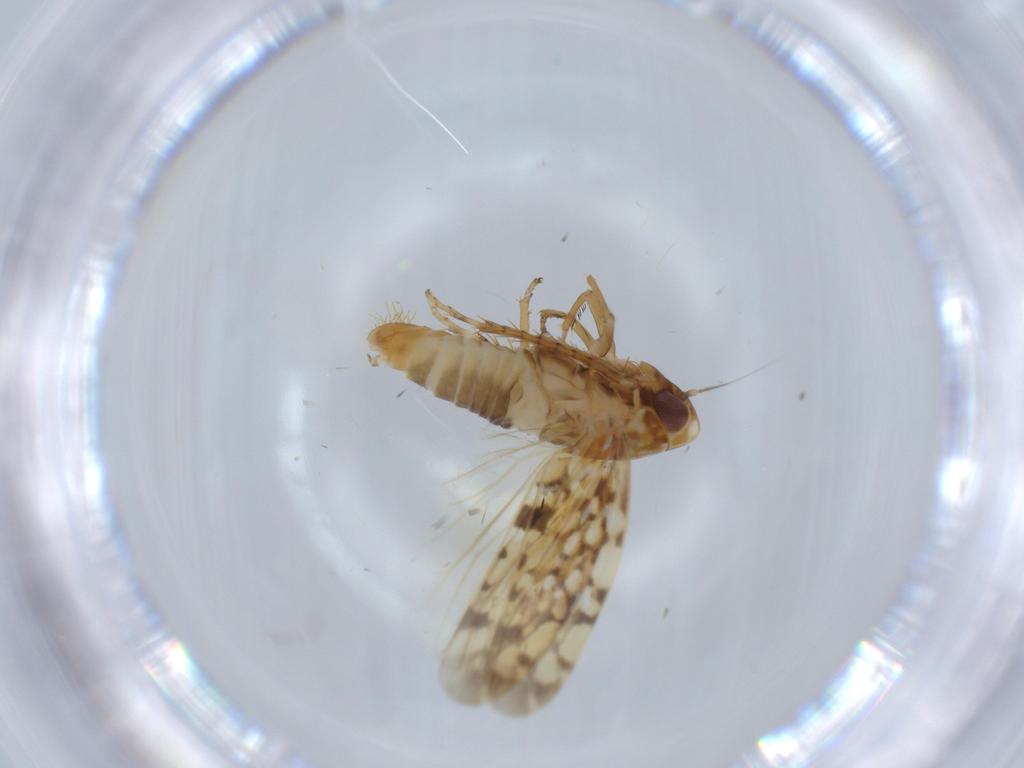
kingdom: Animalia
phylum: Arthropoda
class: Insecta
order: Hemiptera
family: Cicadellidae
